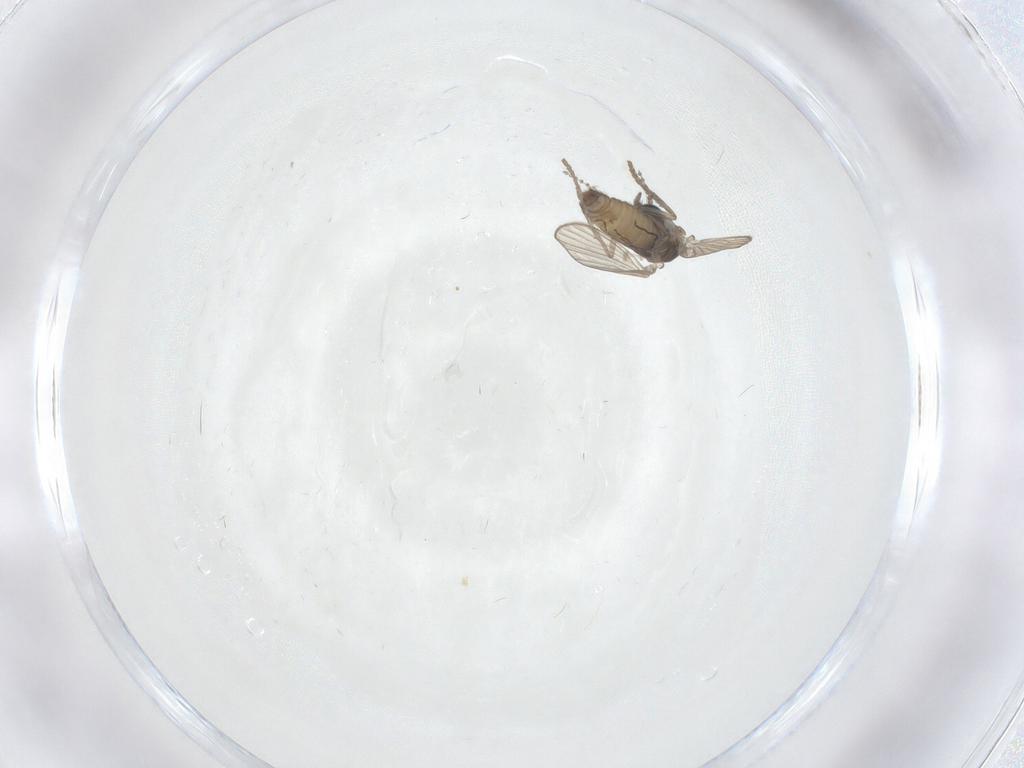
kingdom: Animalia
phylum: Arthropoda
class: Insecta
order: Diptera
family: Psychodidae
